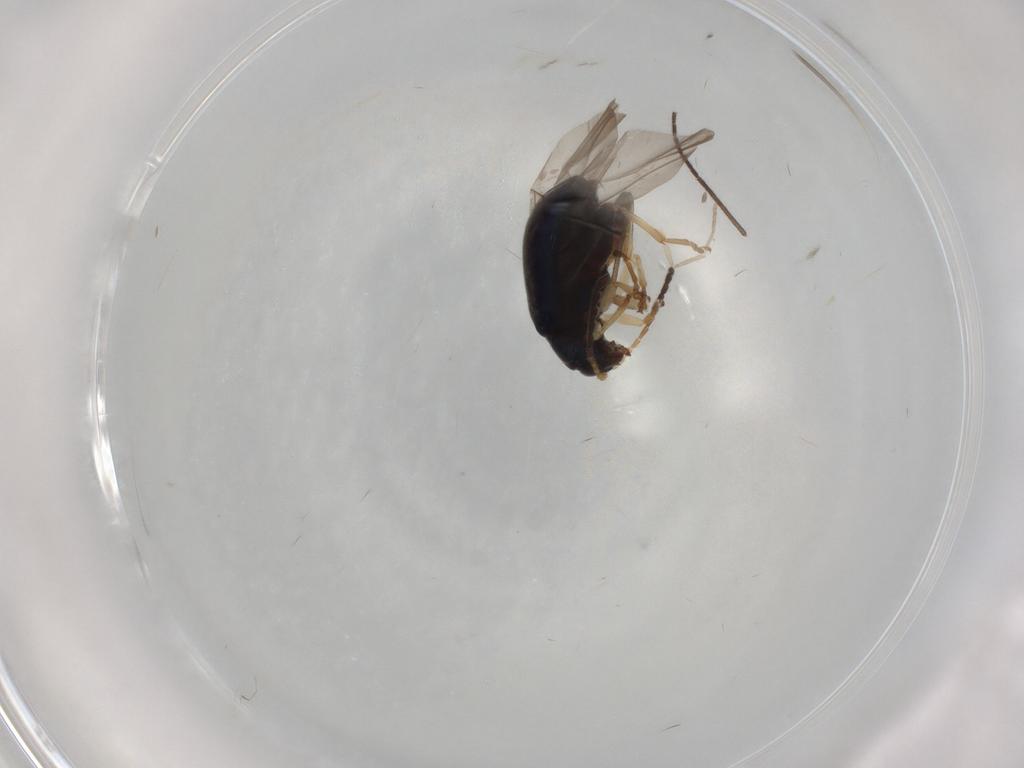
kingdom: Animalia
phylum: Arthropoda
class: Insecta
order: Coleoptera
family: Chrysomelidae
